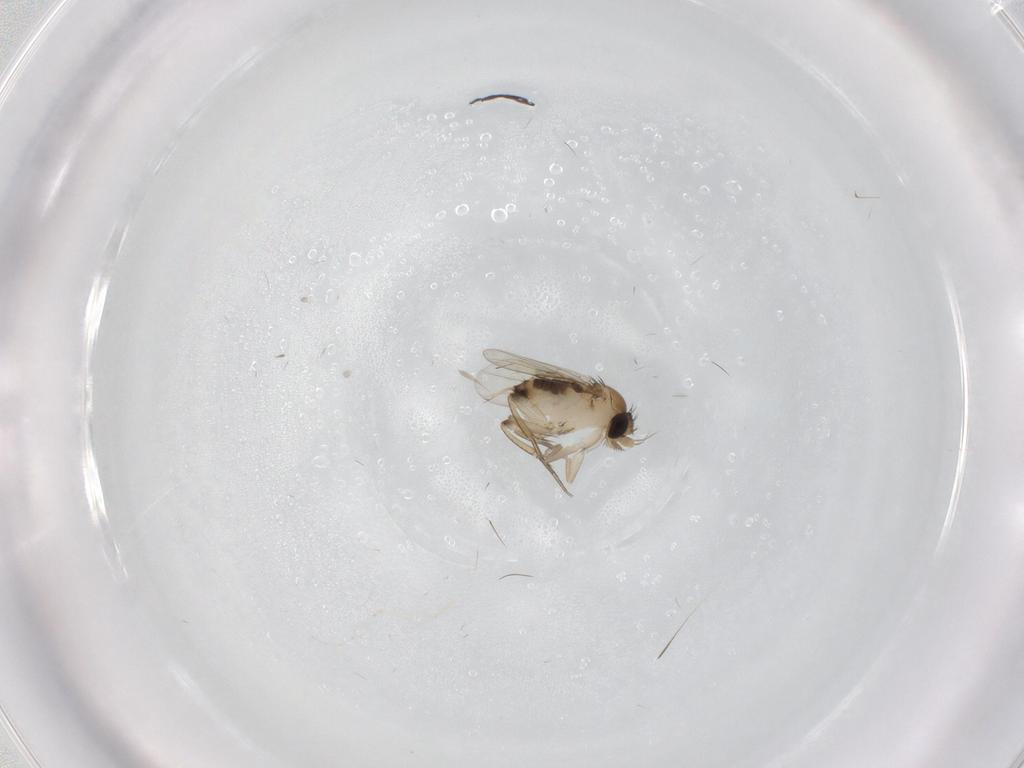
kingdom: Animalia
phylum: Arthropoda
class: Insecta
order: Diptera
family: Cecidomyiidae
